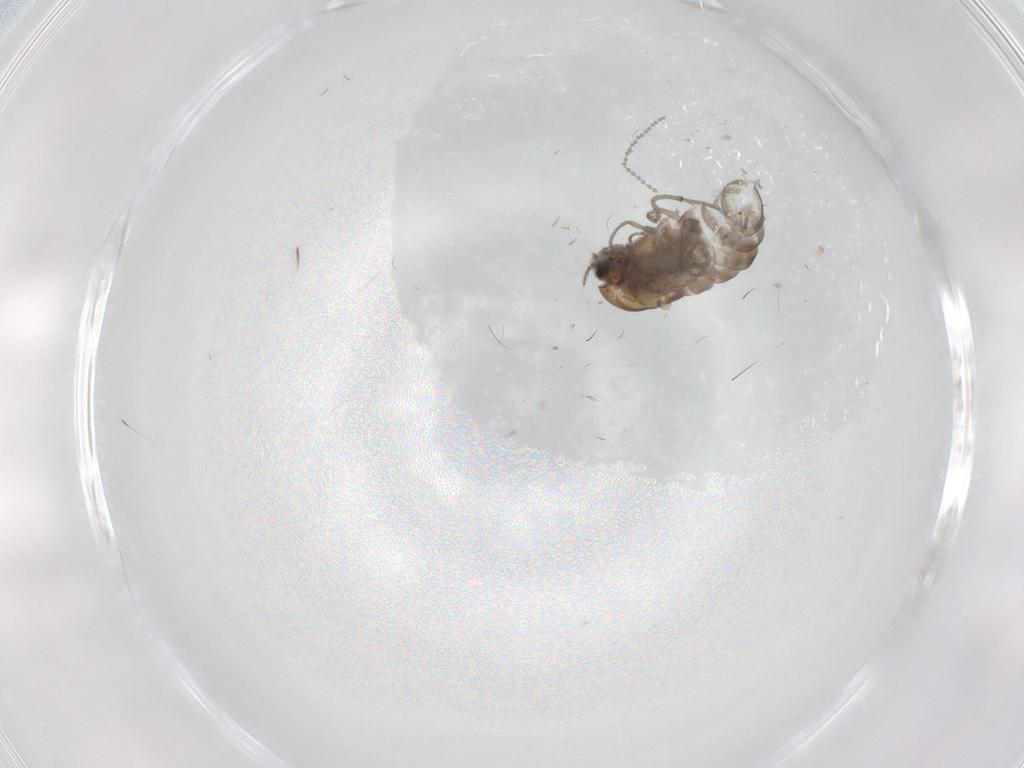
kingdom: Animalia
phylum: Arthropoda
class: Insecta
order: Diptera
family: Cecidomyiidae
